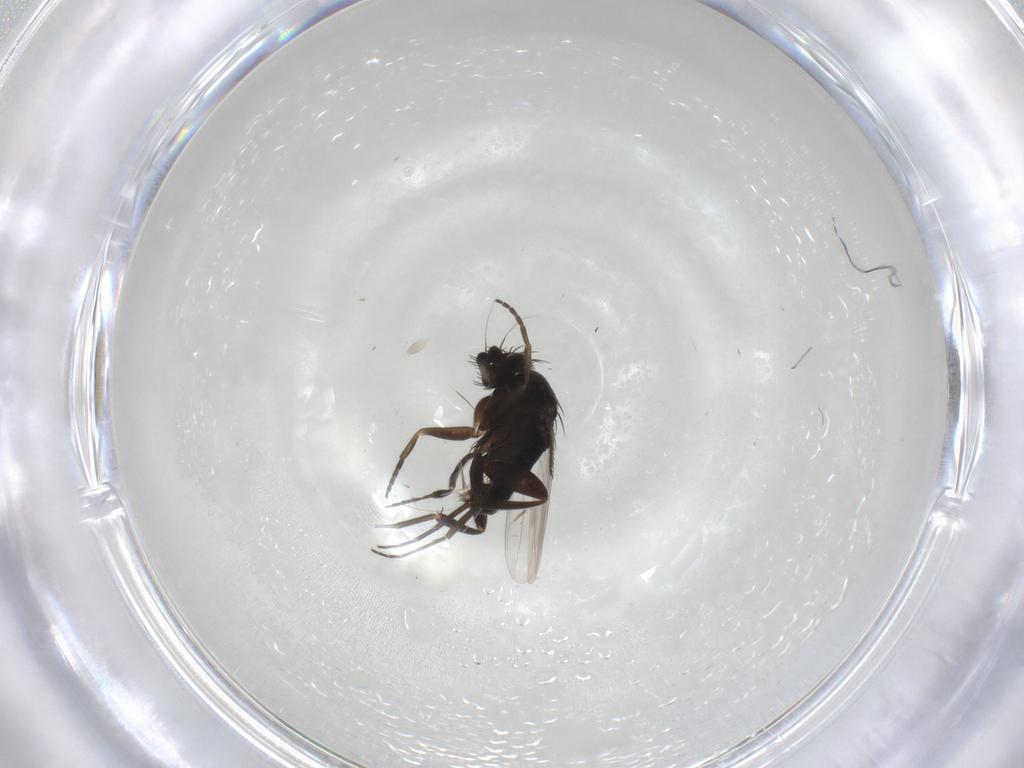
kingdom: Animalia
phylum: Arthropoda
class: Insecta
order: Diptera
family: Phoridae
